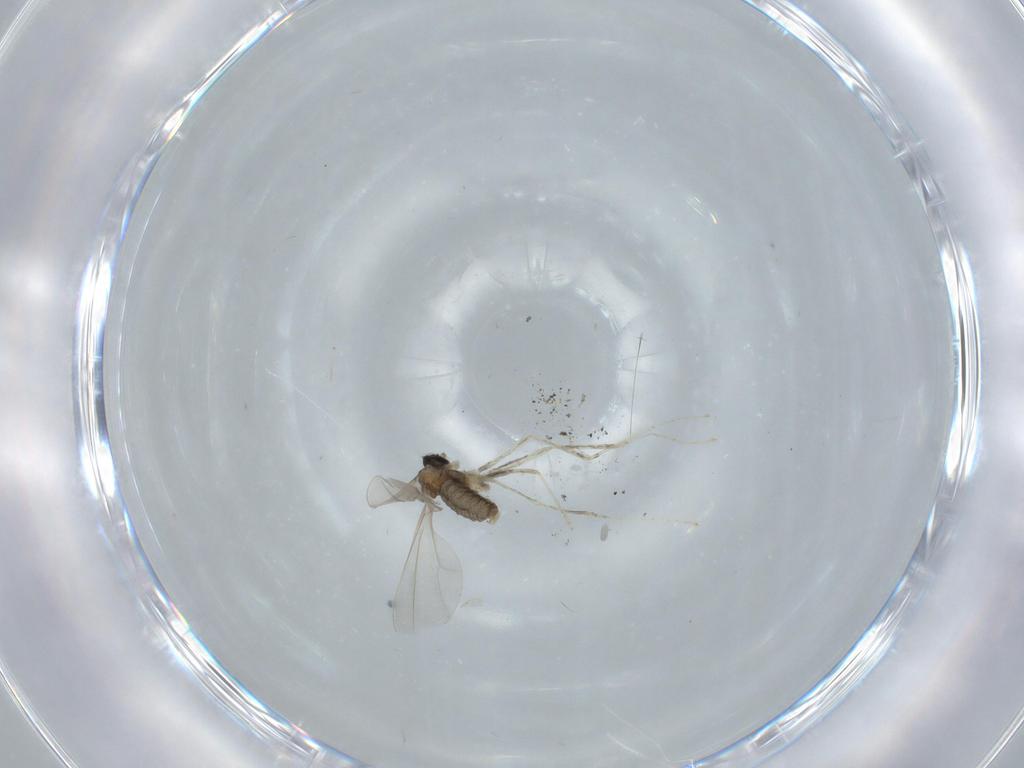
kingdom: Animalia
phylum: Arthropoda
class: Insecta
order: Diptera
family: Cecidomyiidae
